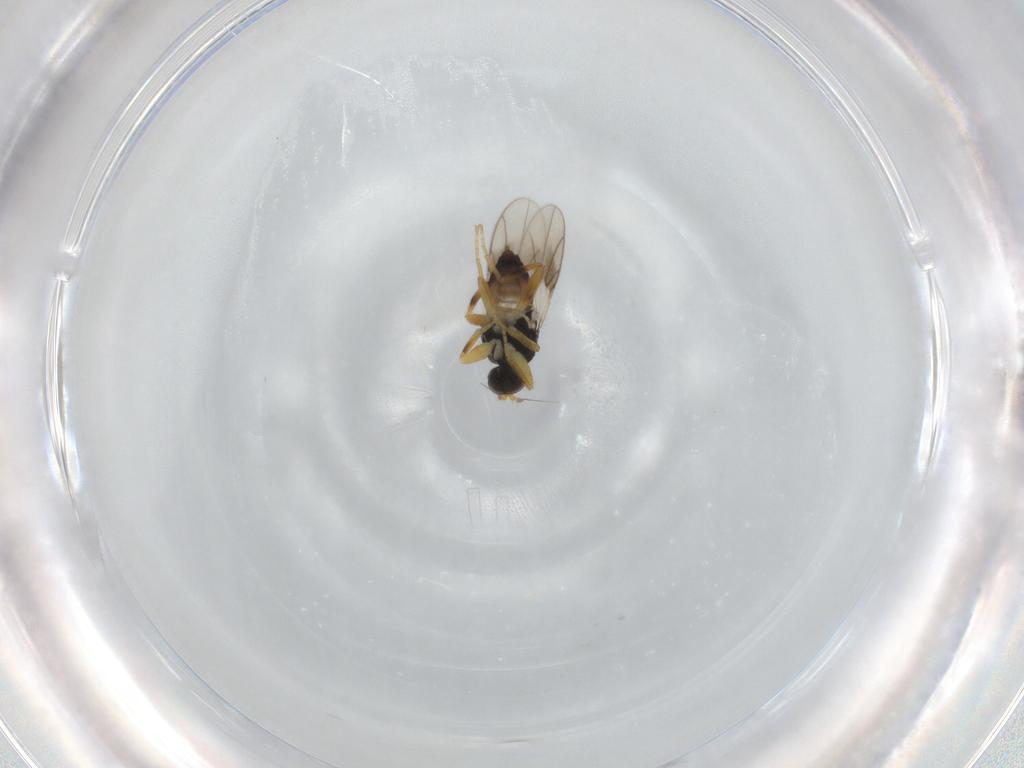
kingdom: Animalia
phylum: Arthropoda
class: Insecta
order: Diptera
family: Hybotidae
